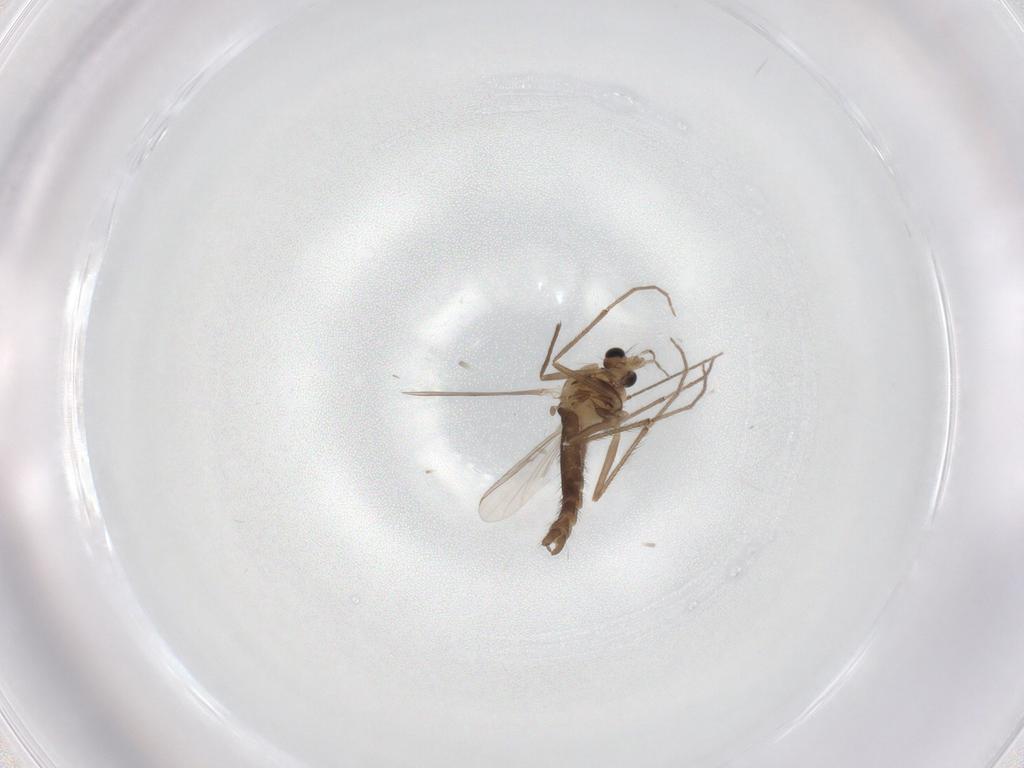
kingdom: Animalia
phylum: Arthropoda
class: Insecta
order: Diptera
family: Chironomidae
